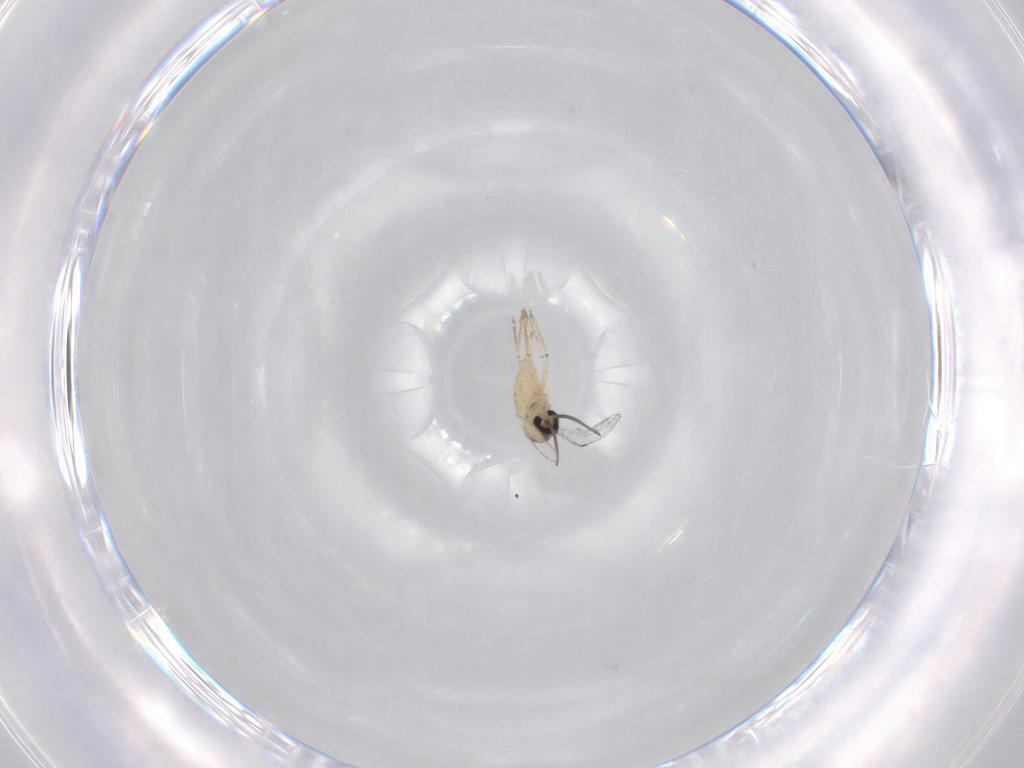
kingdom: Animalia
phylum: Arthropoda
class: Insecta
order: Diptera
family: Cecidomyiidae
